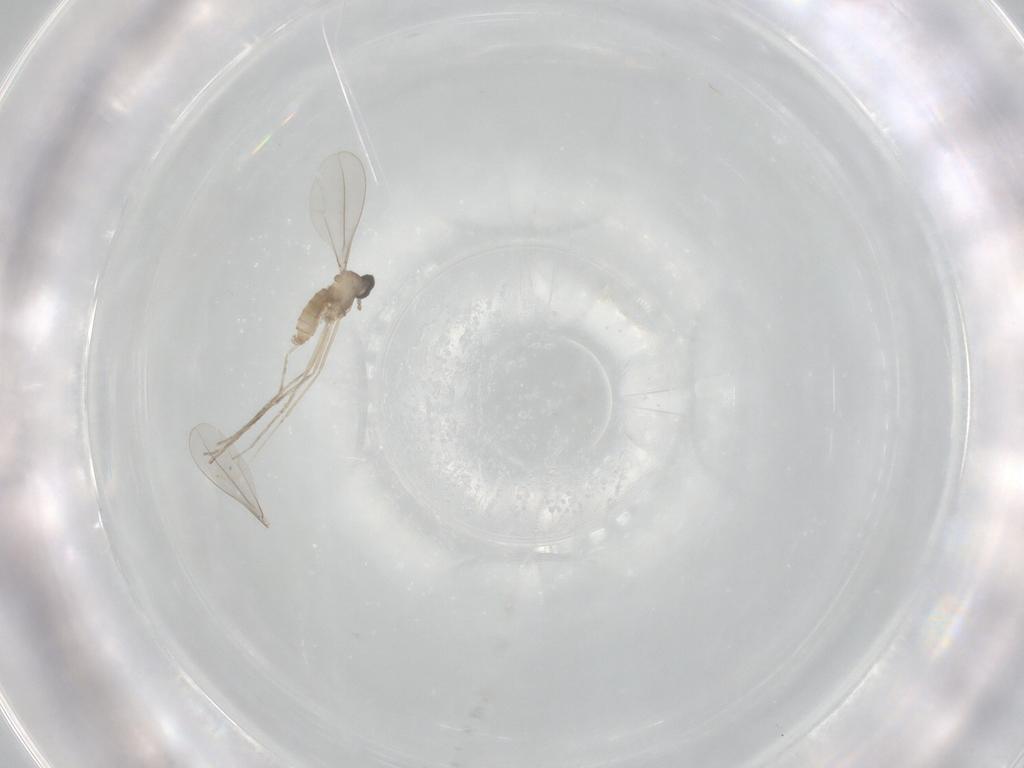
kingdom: Animalia
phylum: Arthropoda
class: Insecta
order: Diptera
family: Cecidomyiidae
